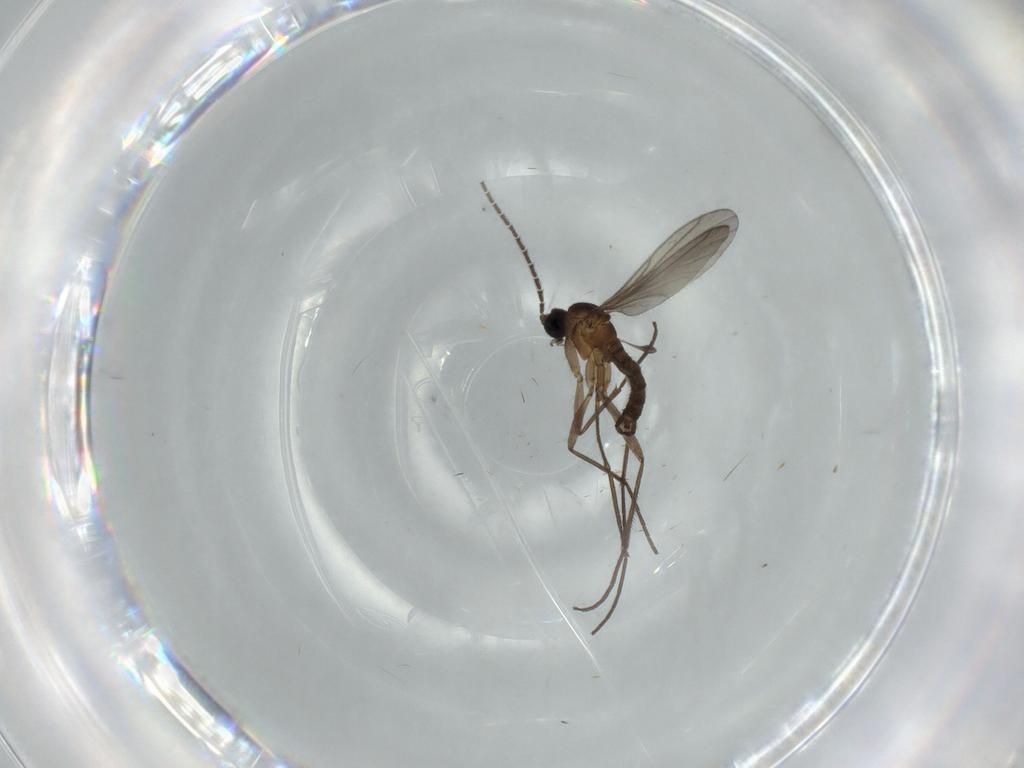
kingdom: Animalia
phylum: Arthropoda
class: Insecta
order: Diptera
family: Sciaridae
